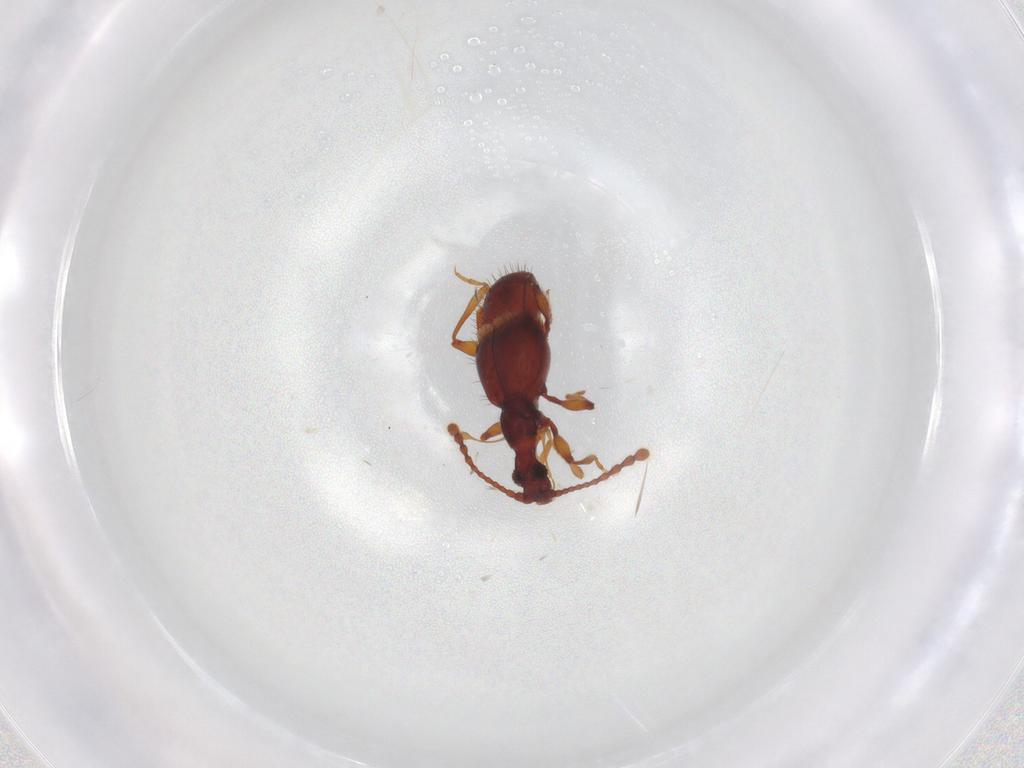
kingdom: Animalia
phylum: Arthropoda
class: Insecta
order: Coleoptera
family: Staphylinidae
